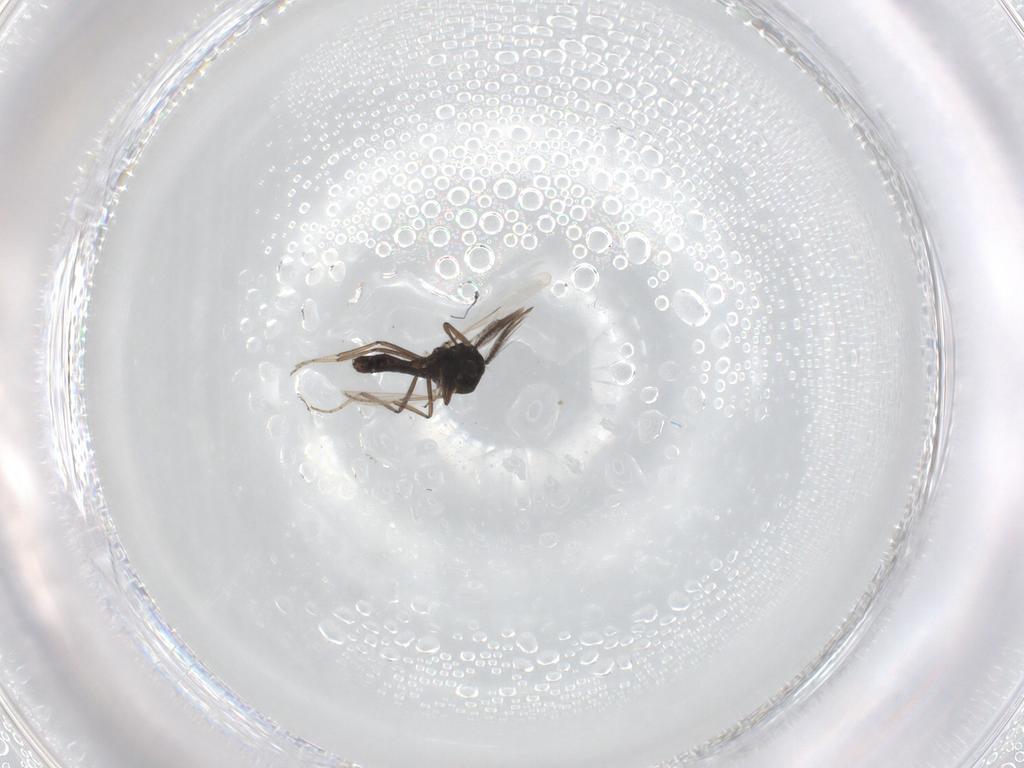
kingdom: Animalia
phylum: Arthropoda
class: Insecta
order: Diptera
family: Ceratopogonidae
